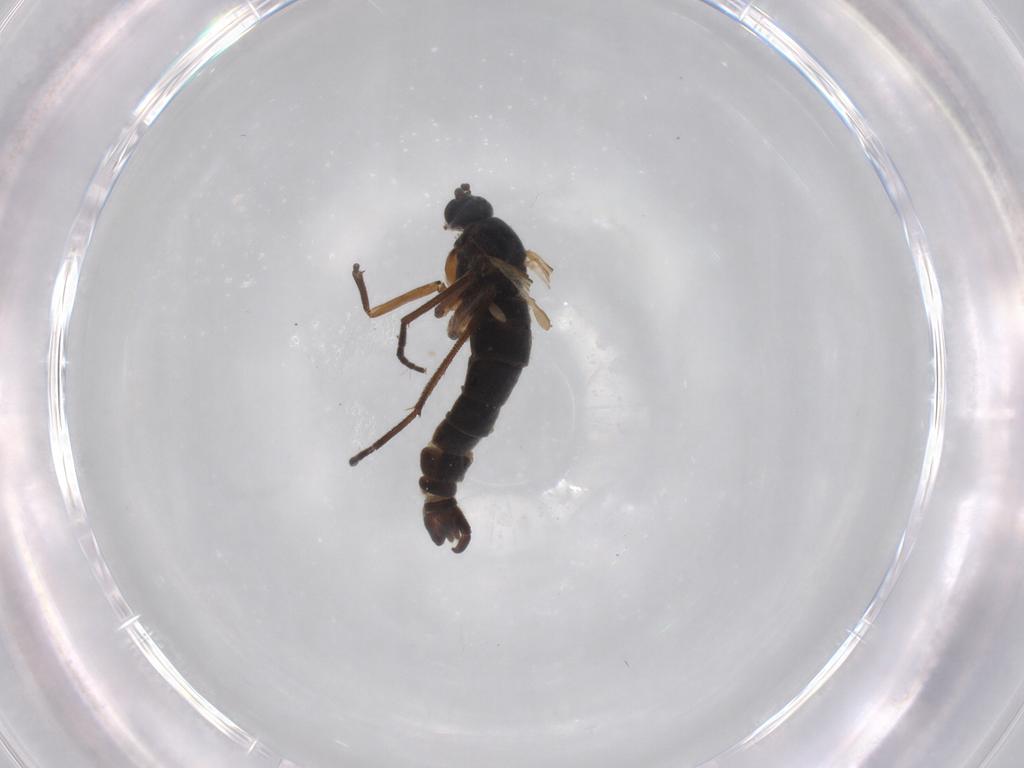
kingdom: Animalia
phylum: Arthropoda
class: Insecta
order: Diptera
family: Sciaridae
